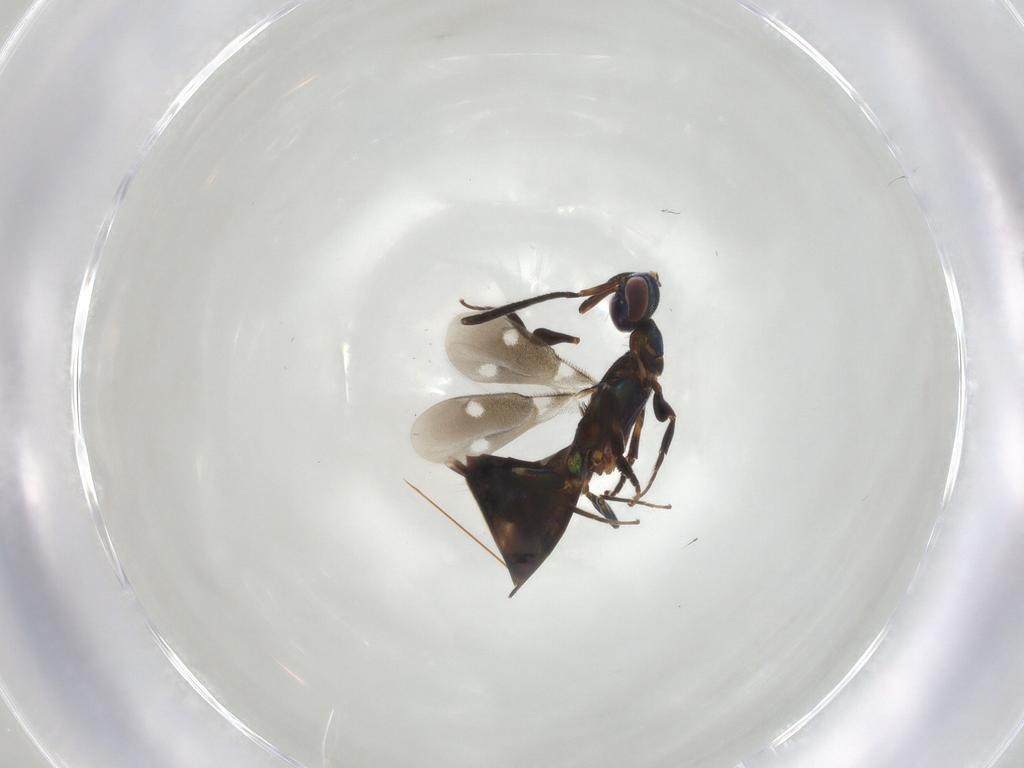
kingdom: Animalia
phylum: Arthropoda
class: Insecta
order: Hymenoptera
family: Eupelmidae
